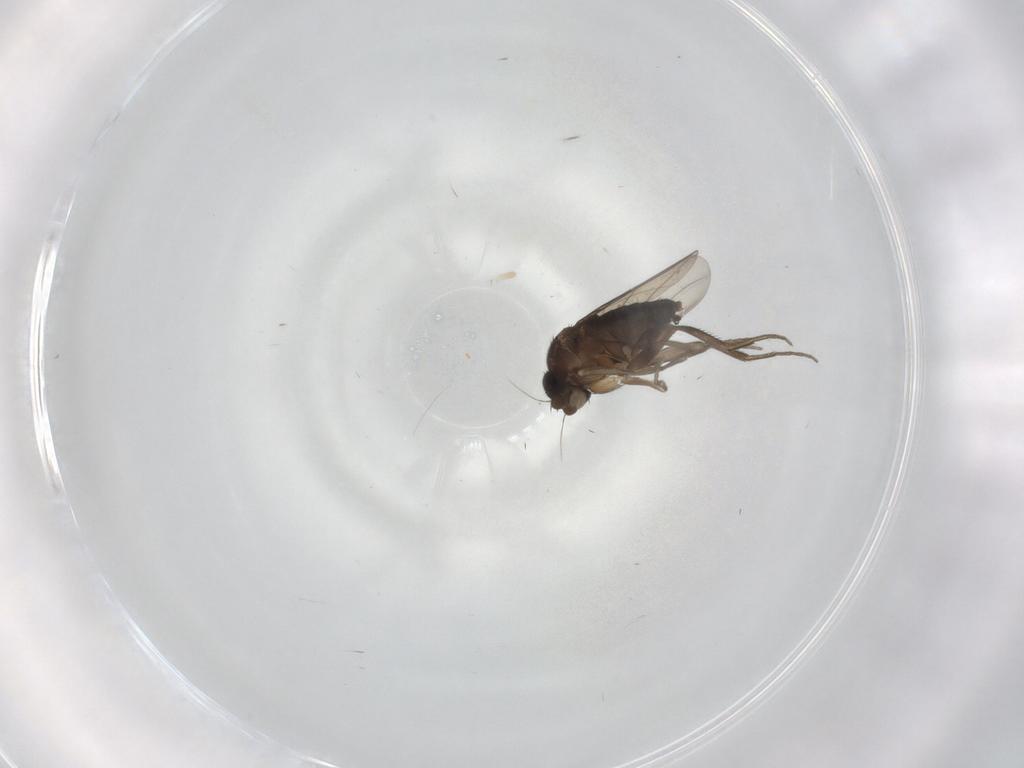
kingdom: Animalia
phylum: Arthropoda
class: Insecta
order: Diptera
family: Phoridae
